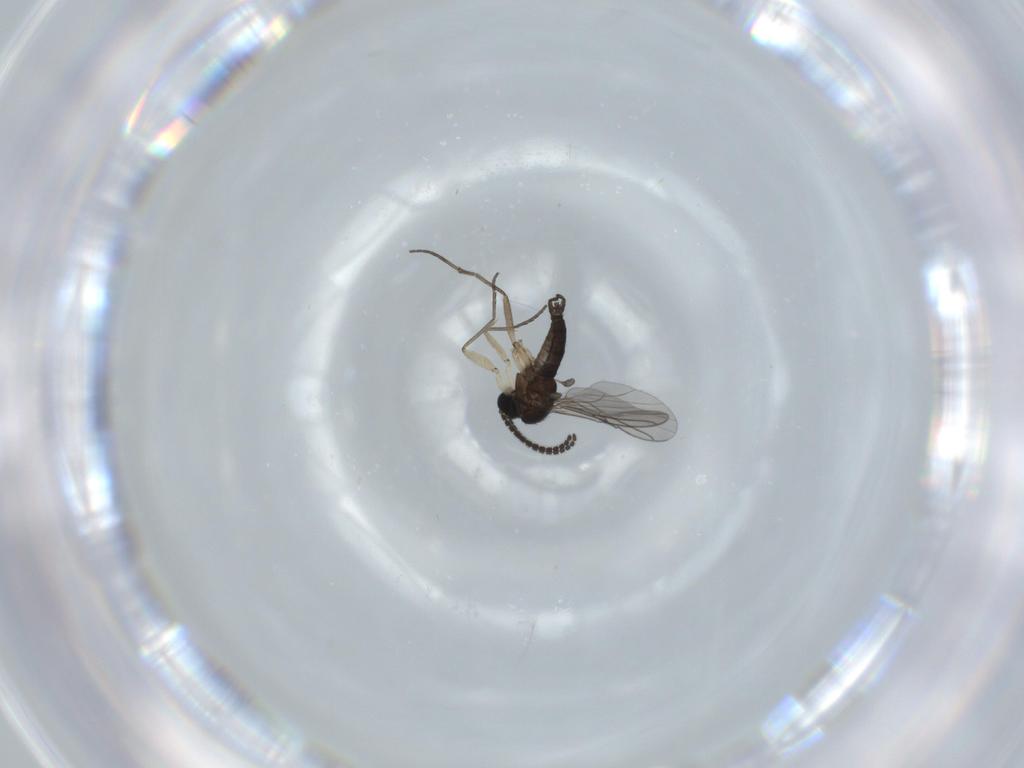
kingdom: Animalia
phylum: Arthropoda
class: Insecta
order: Diptera
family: Sciaridae
